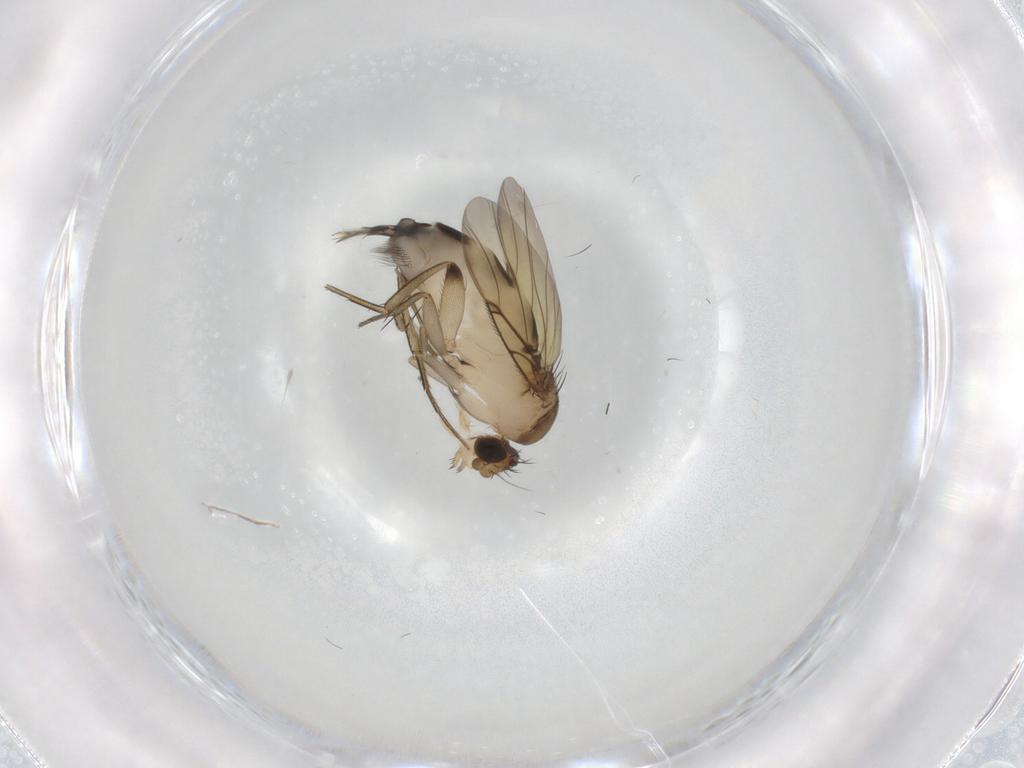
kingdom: Animalia
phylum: Arthropoda
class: Insecta
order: Diptera
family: Phoridae
